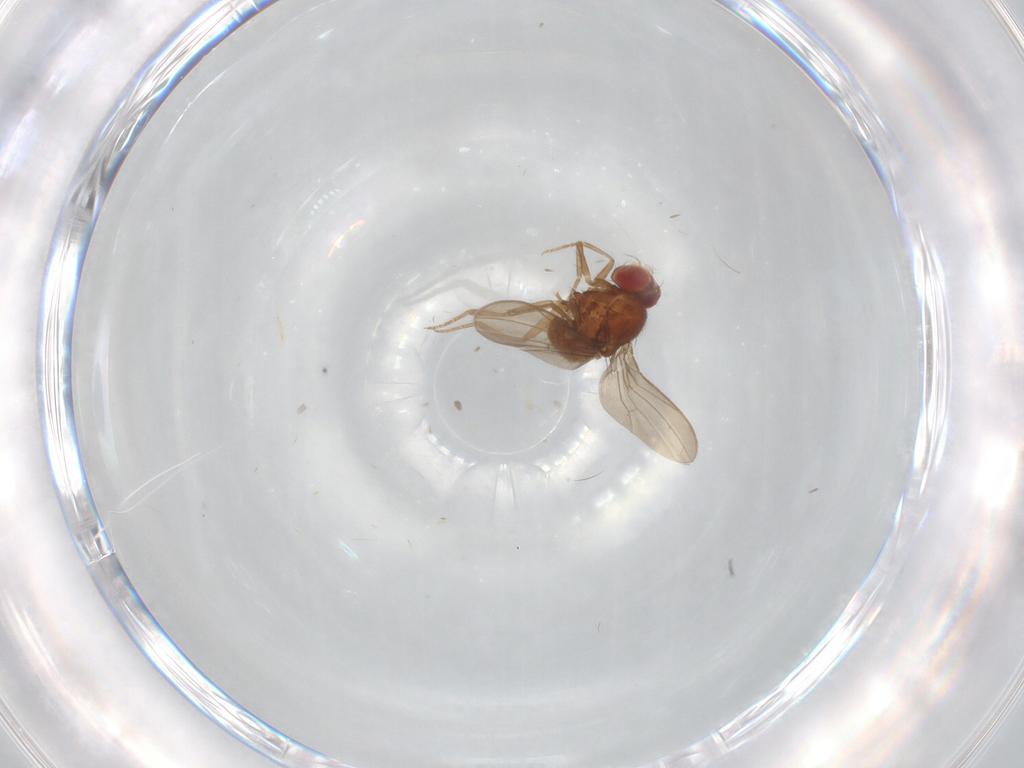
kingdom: Animalia
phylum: Arthropoda
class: Insecta
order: Diptera
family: Drosophilidae
